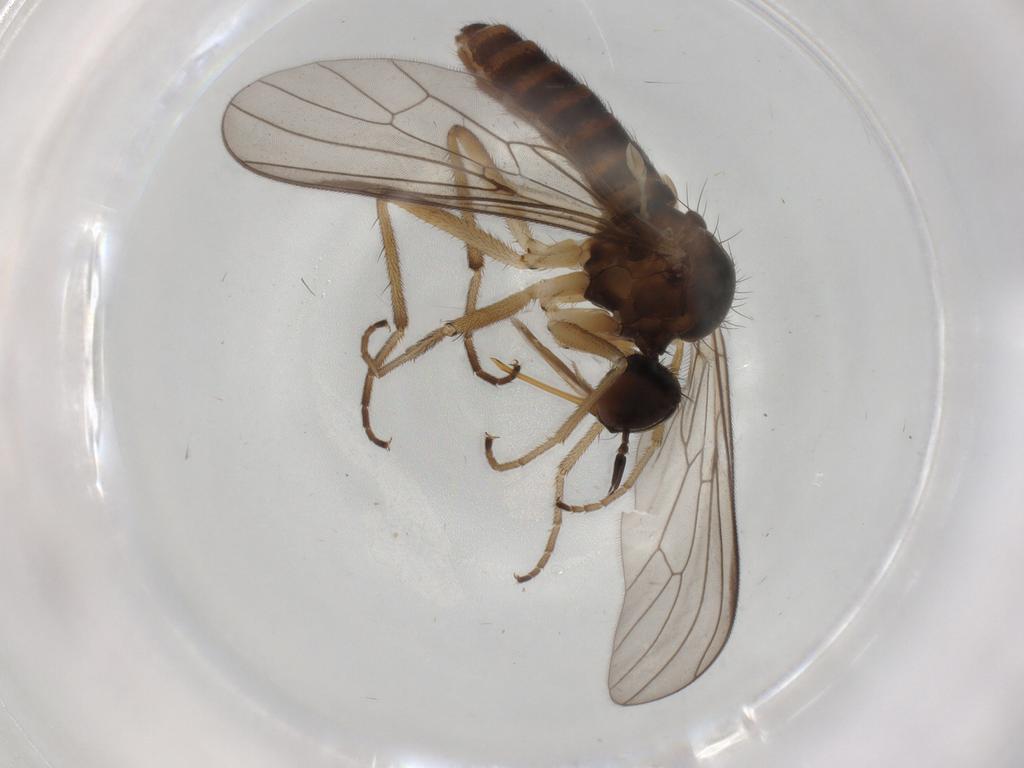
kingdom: Animalia
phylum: Arthropoda
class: Insecta
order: Diptera
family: Empididae
